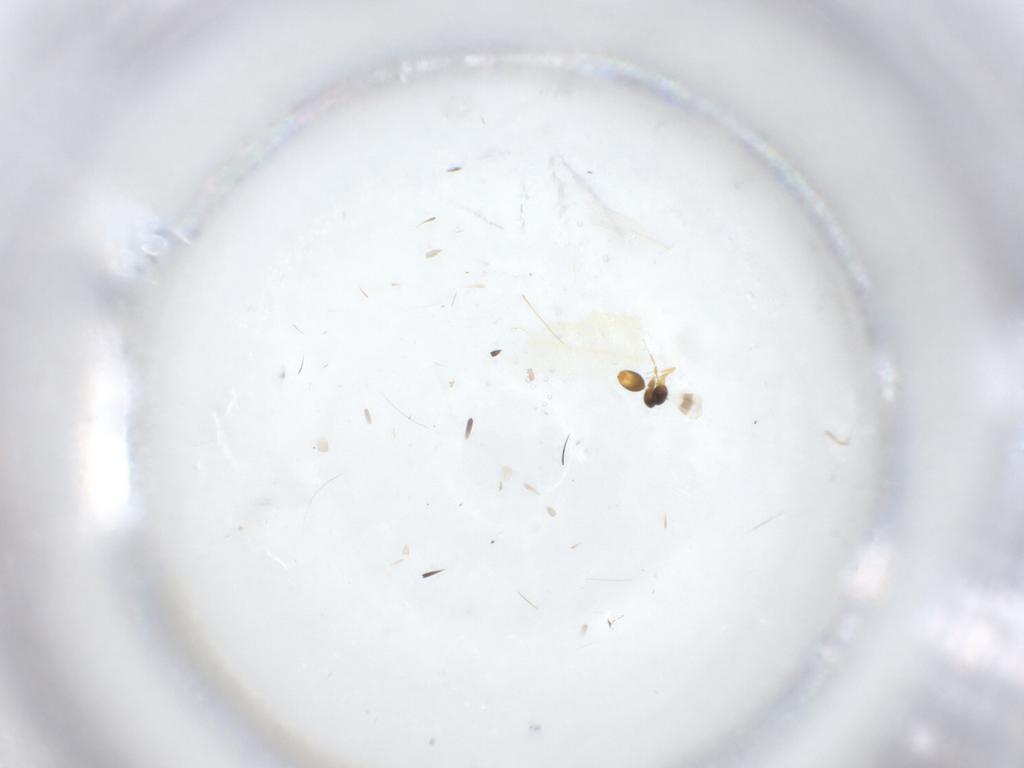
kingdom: Animalia
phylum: Arthropoda
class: Insecta
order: Hymenoptera
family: Platygastridae
